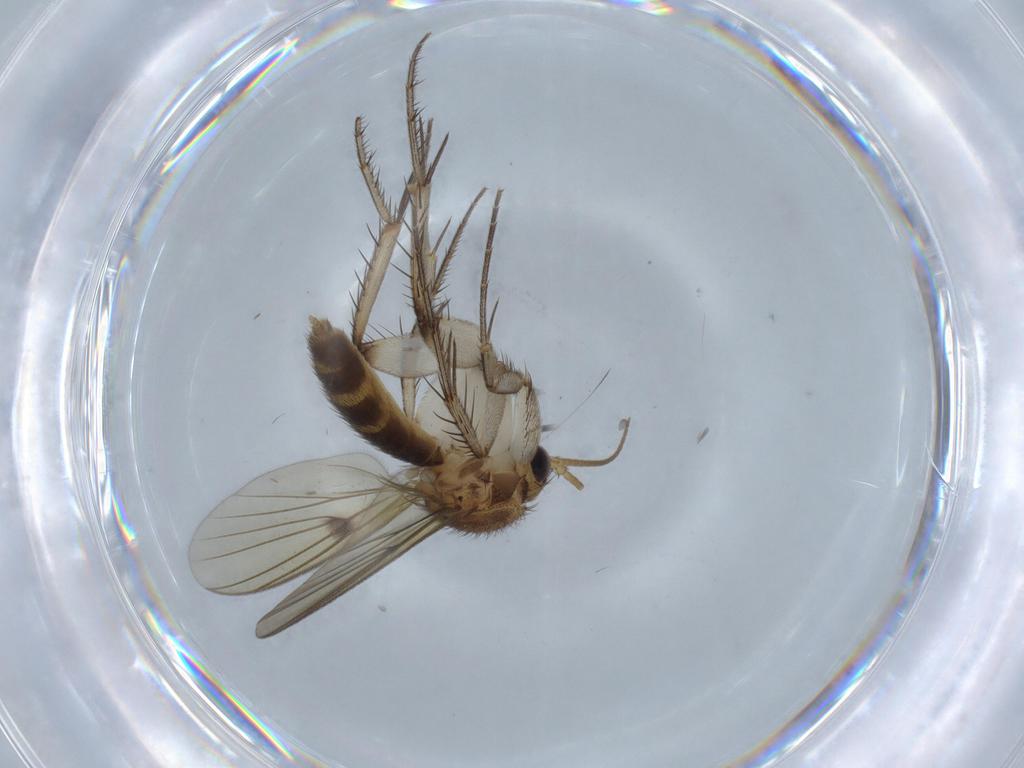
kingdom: Animalia
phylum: Arthropoda
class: Insecta
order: Diptera
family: Mycetophilidae
